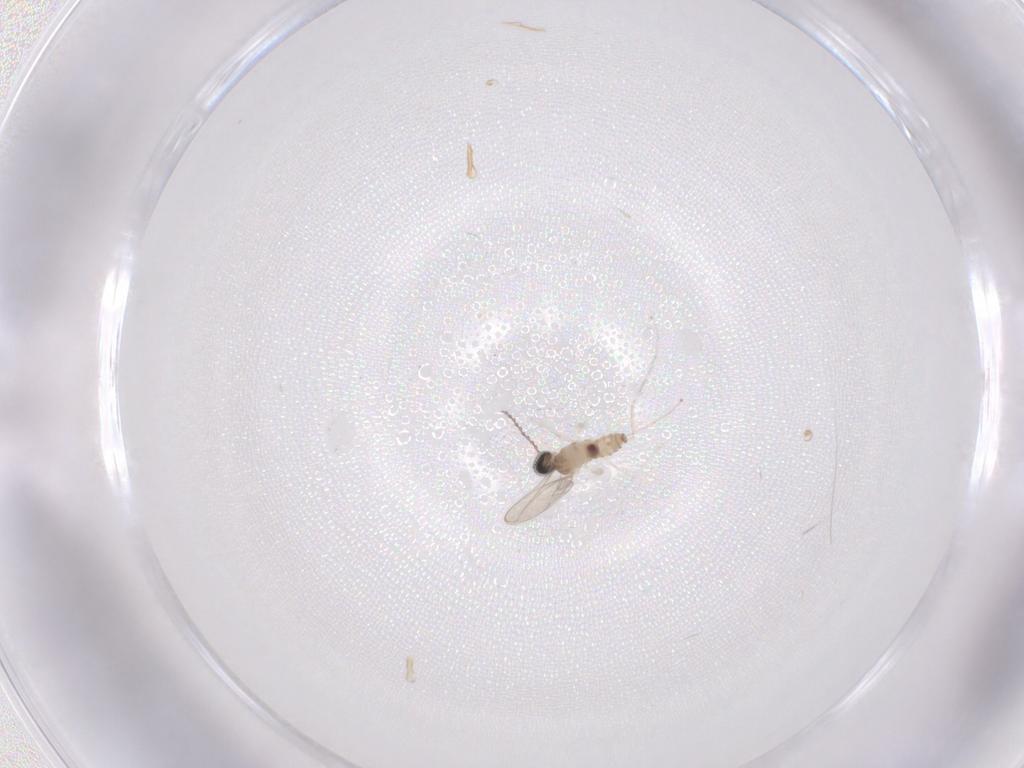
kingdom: Animalia
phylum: Arthropoda
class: Insecta
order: Diptera
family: Cecidomyiidae
